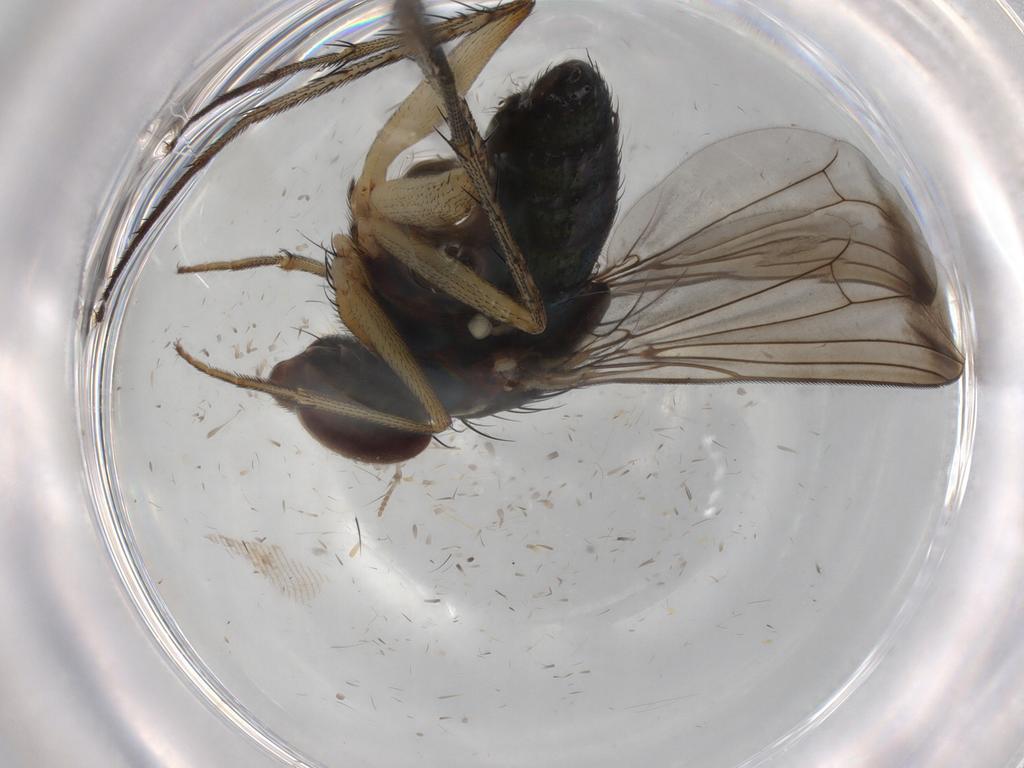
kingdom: Animalia
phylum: Arthropoda
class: Insecta
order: Diptera
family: Dolichopodidae
